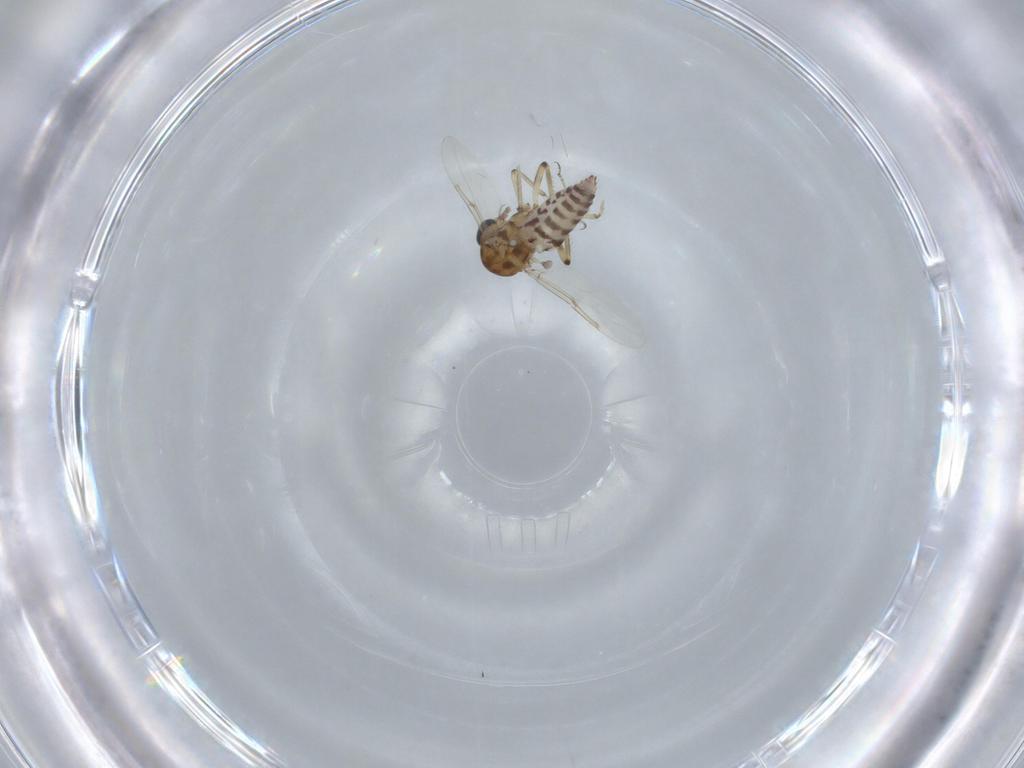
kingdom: Animalia
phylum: Arthropoda
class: Insecta
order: Diptera
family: Ceratopogonidae
